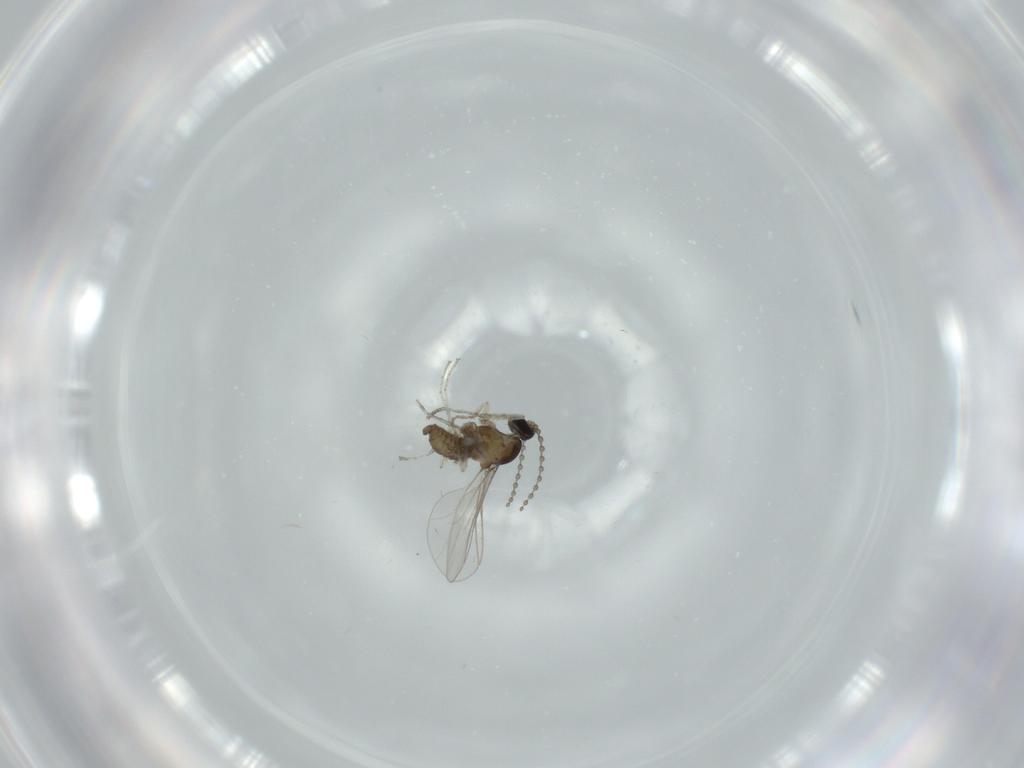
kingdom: Animalia
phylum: Arthropoda
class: Insecta
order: Diptera
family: Cecidomyiidae
